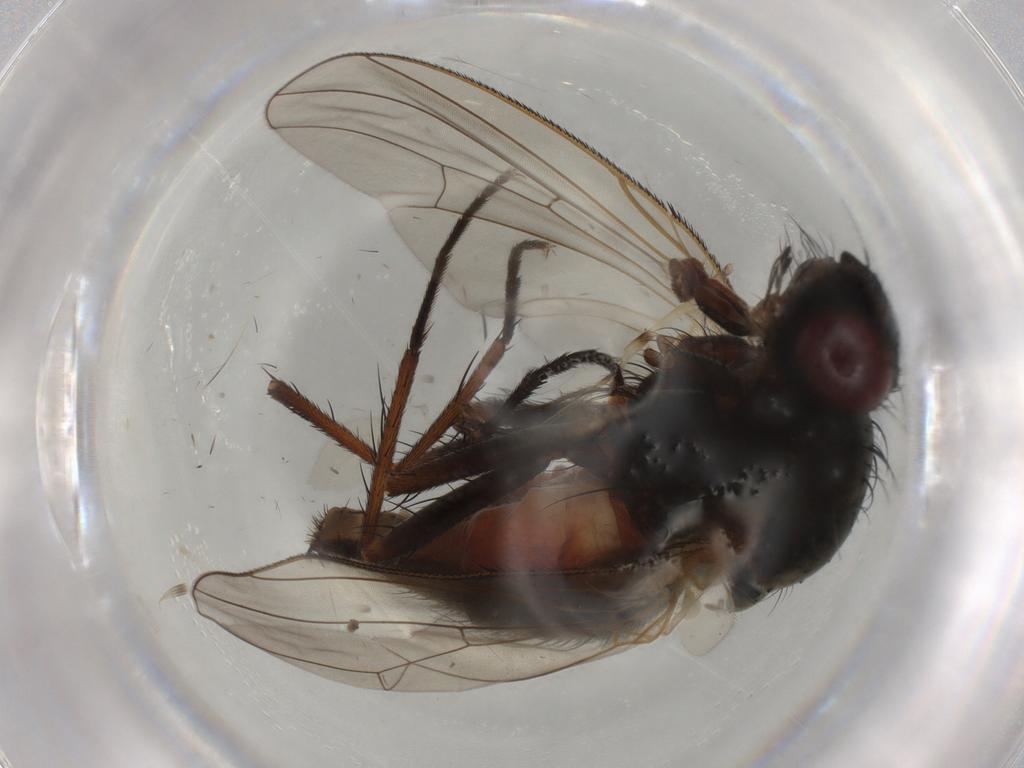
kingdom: Animalia
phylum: Arthropoda
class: Insecta
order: Diptera
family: Anthomyiidae
